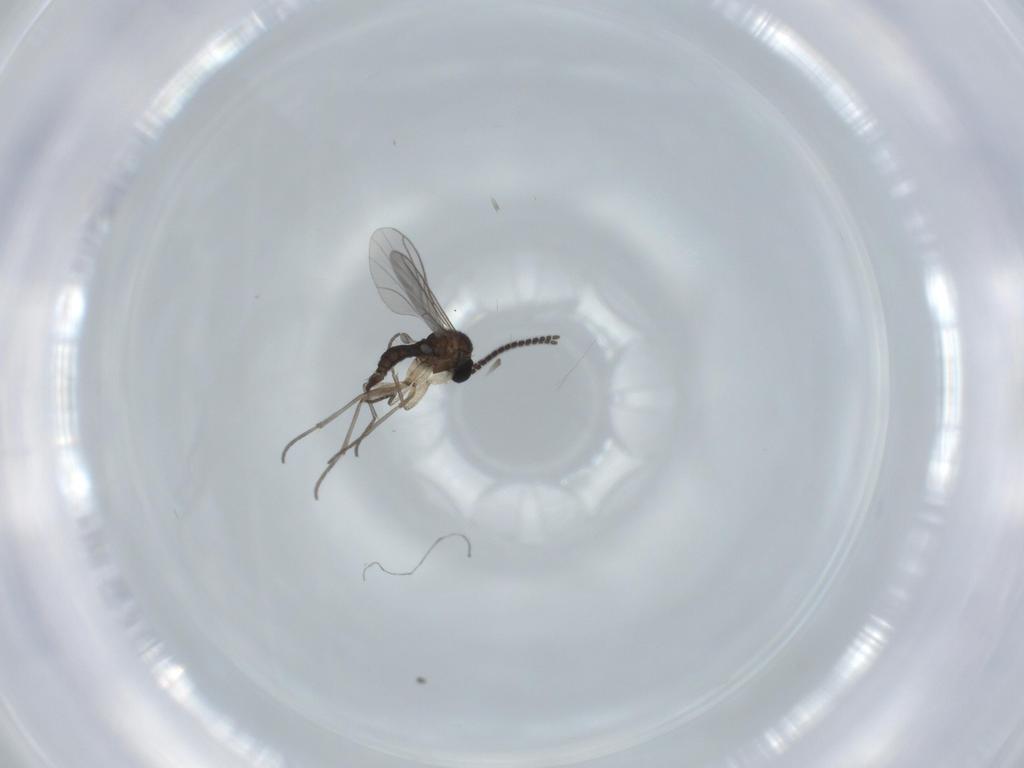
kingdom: Animalia
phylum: Arthropoda
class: Insecta
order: Diptera
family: Sciaridae
